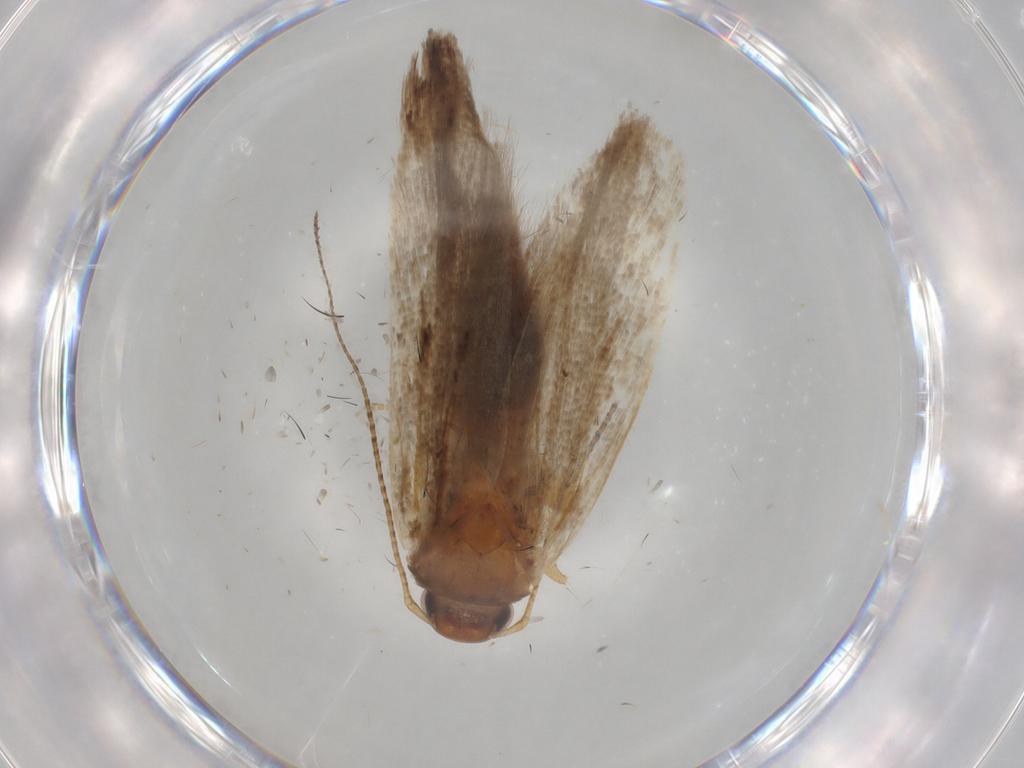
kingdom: Animalia
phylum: Arthropoda
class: Insecta
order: Lepidoptera
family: Gelechiidae
